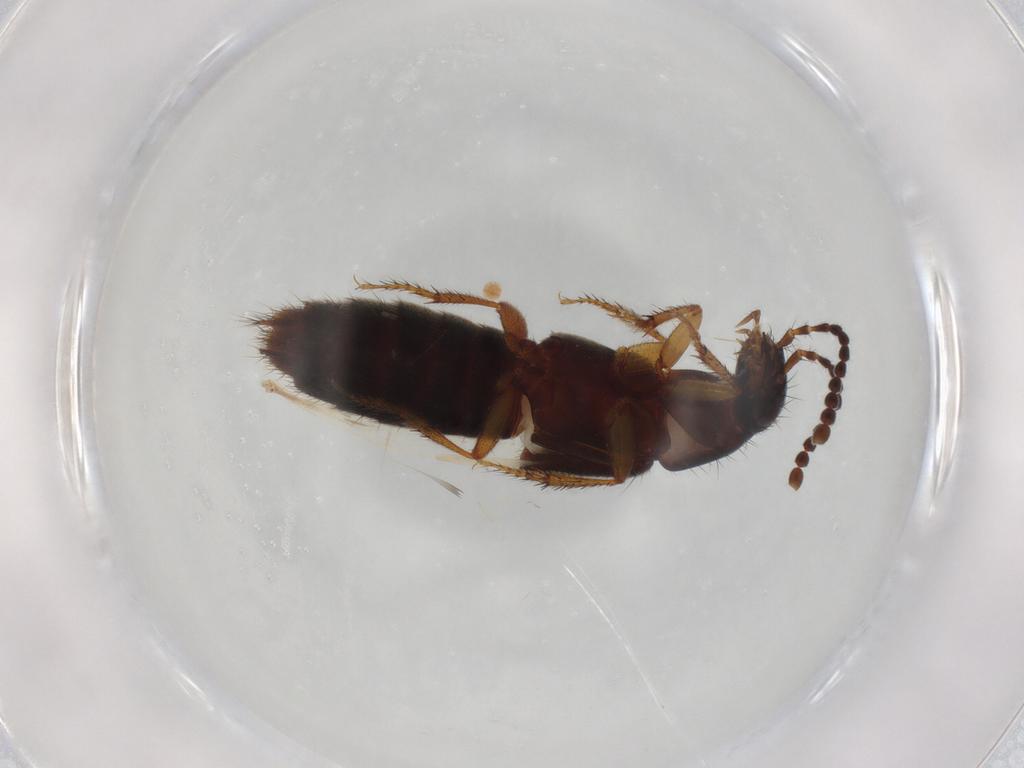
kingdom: Animalia
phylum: Arthropoda
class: Insecta
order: Coleoptera
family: Staphylinidae
